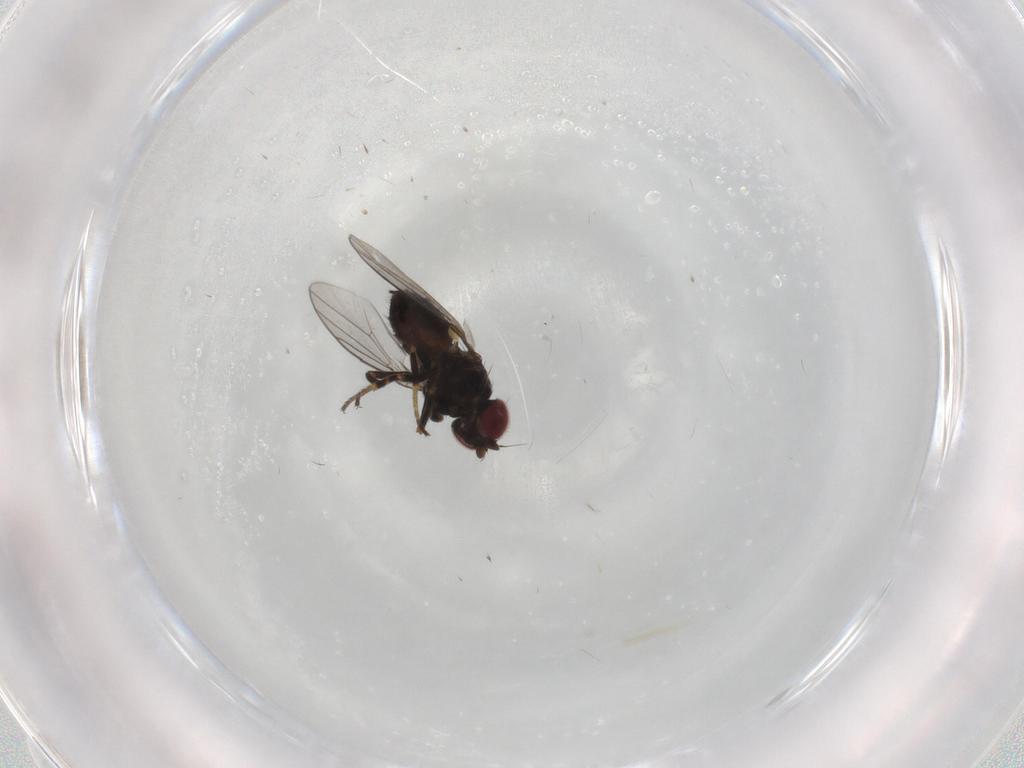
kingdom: Animalia
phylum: Arthropoda
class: Insecta
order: Diptera
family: Chloropidae
